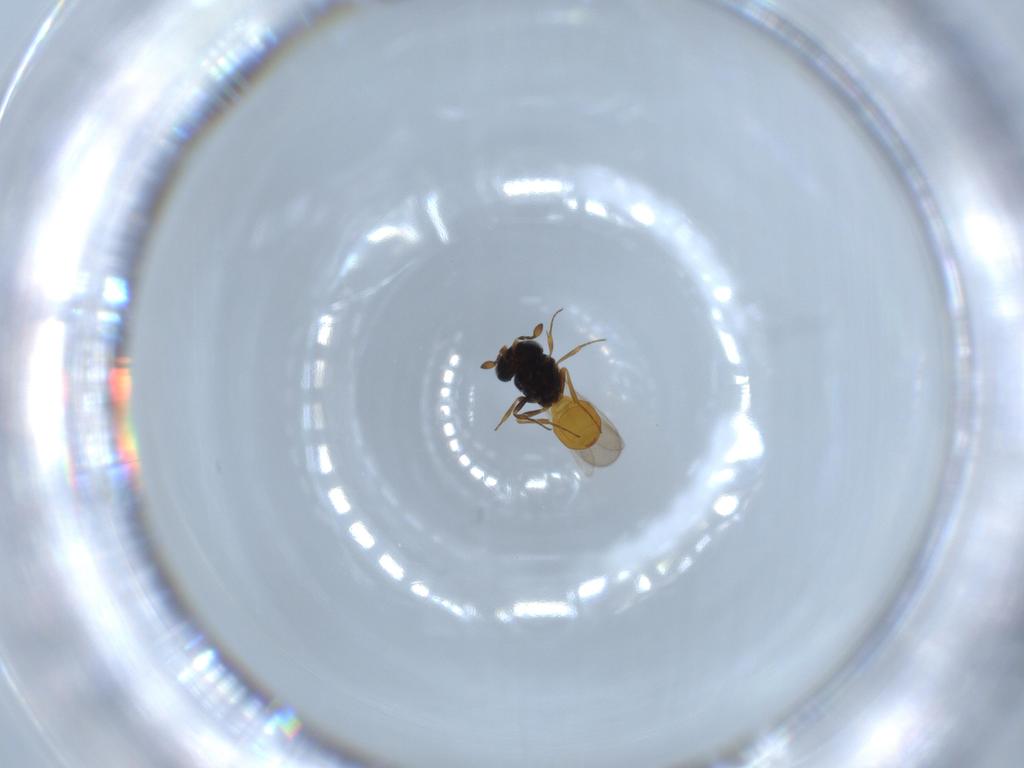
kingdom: Animalia
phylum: Arthropoda
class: Insecta
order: Hymenoptera
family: Scelionidae
